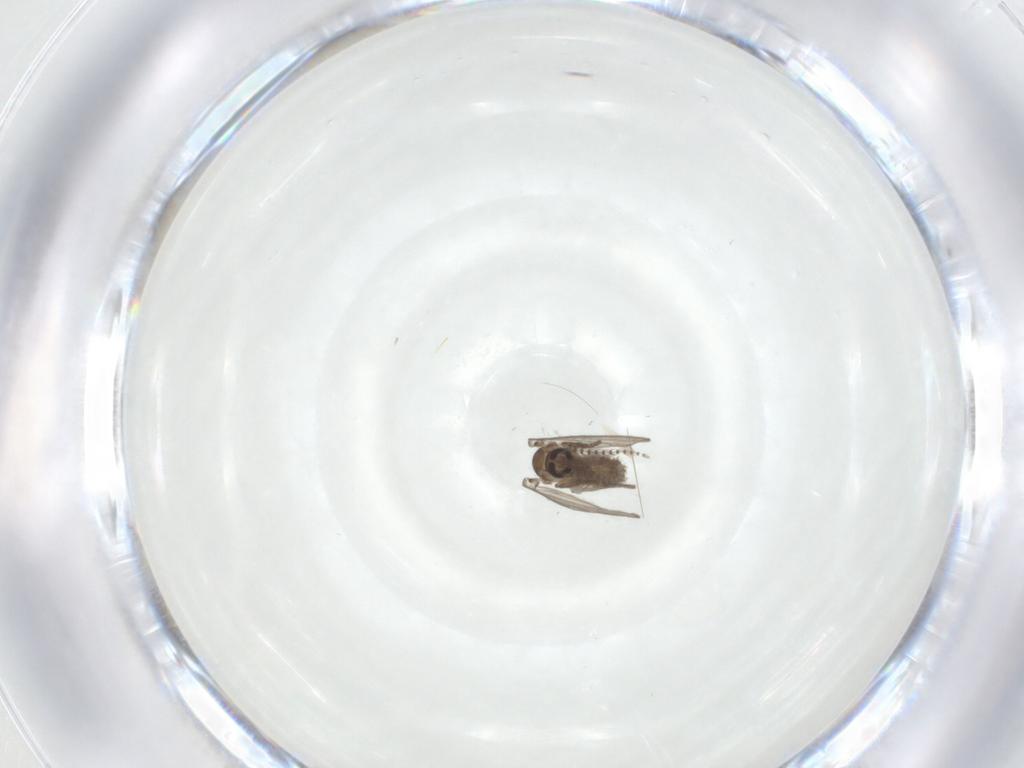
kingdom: Animalia
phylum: Arthropoda
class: Insecta
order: Diptera
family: Psychodidae
